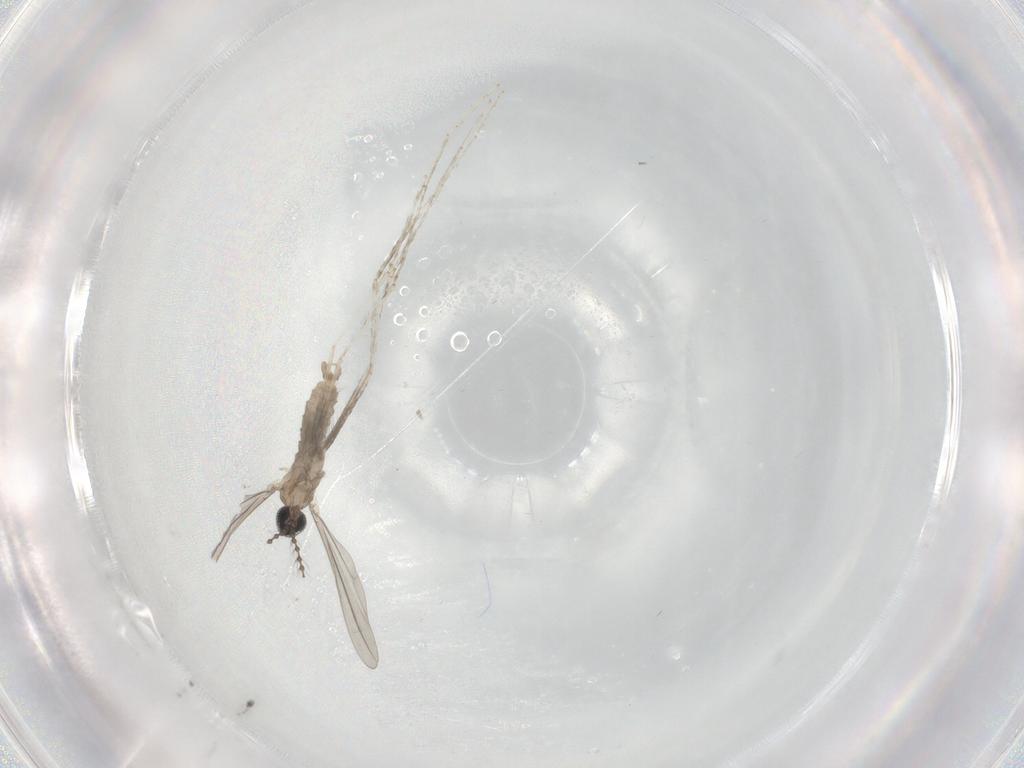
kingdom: Animalia
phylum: Arthropoda
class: Insecta
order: Diptera
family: Cecidomyiidae
